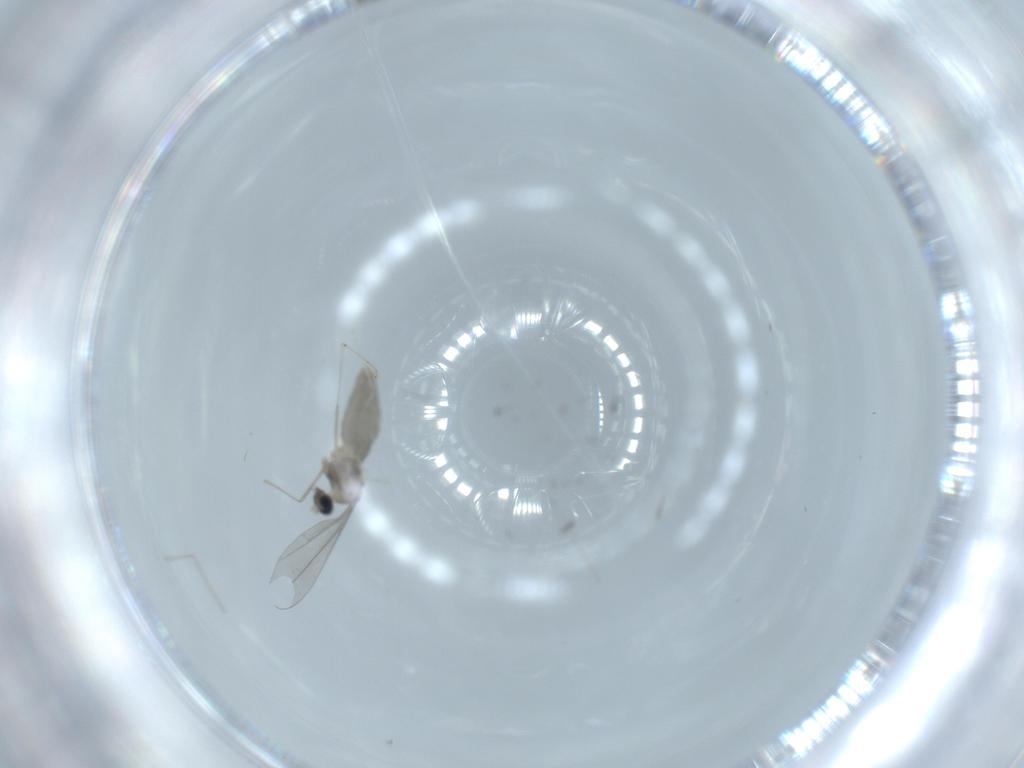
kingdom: Animalia
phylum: Arthropoda
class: Insecta
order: Diptera
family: Cecidomyiidae
